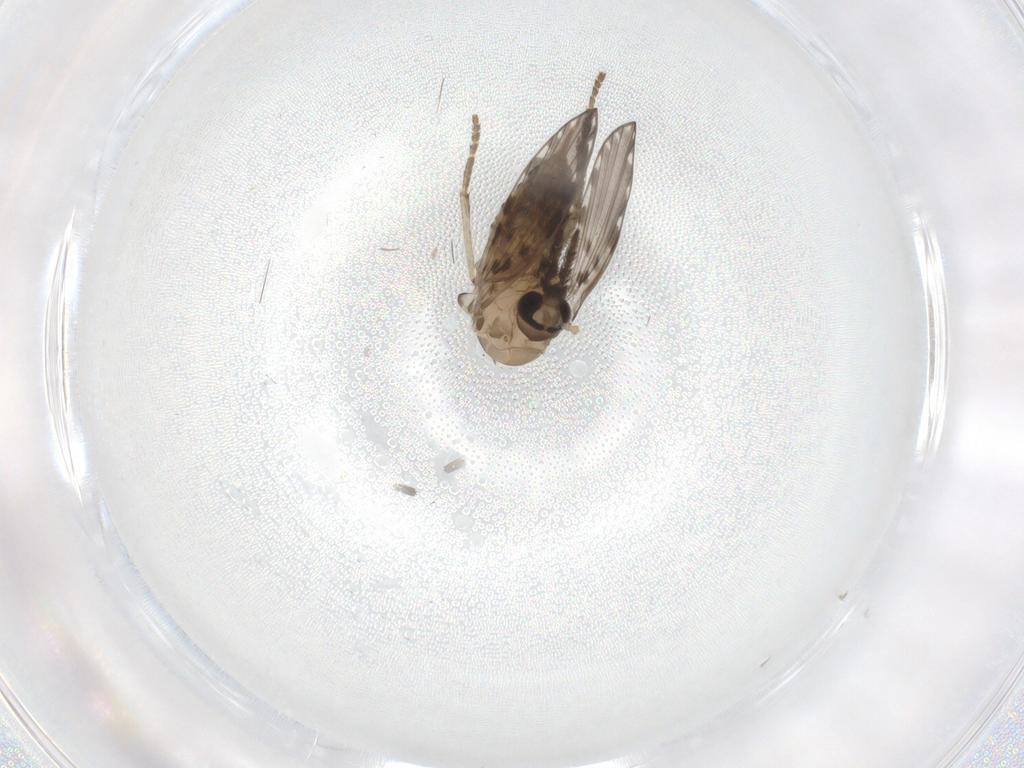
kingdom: Animalia
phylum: Arthropoda
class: Insecta
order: Diptera
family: Psychodidae
